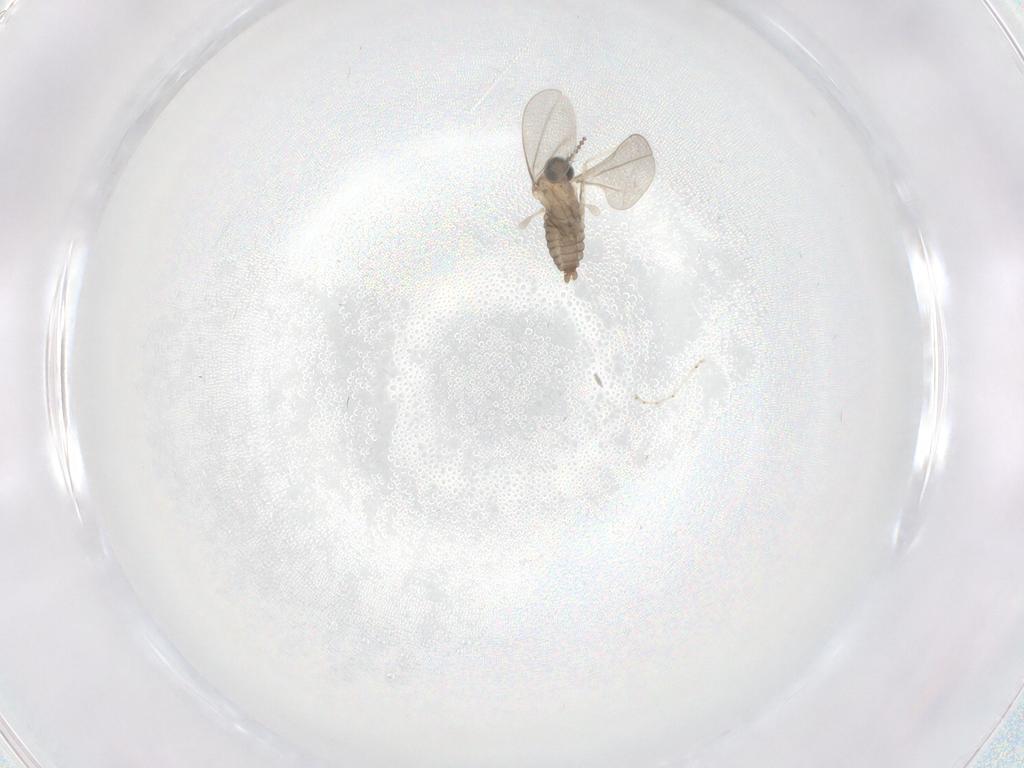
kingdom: Animalia
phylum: Arthropoda
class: Insecta
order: Diptera
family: Cecidomyiidae
